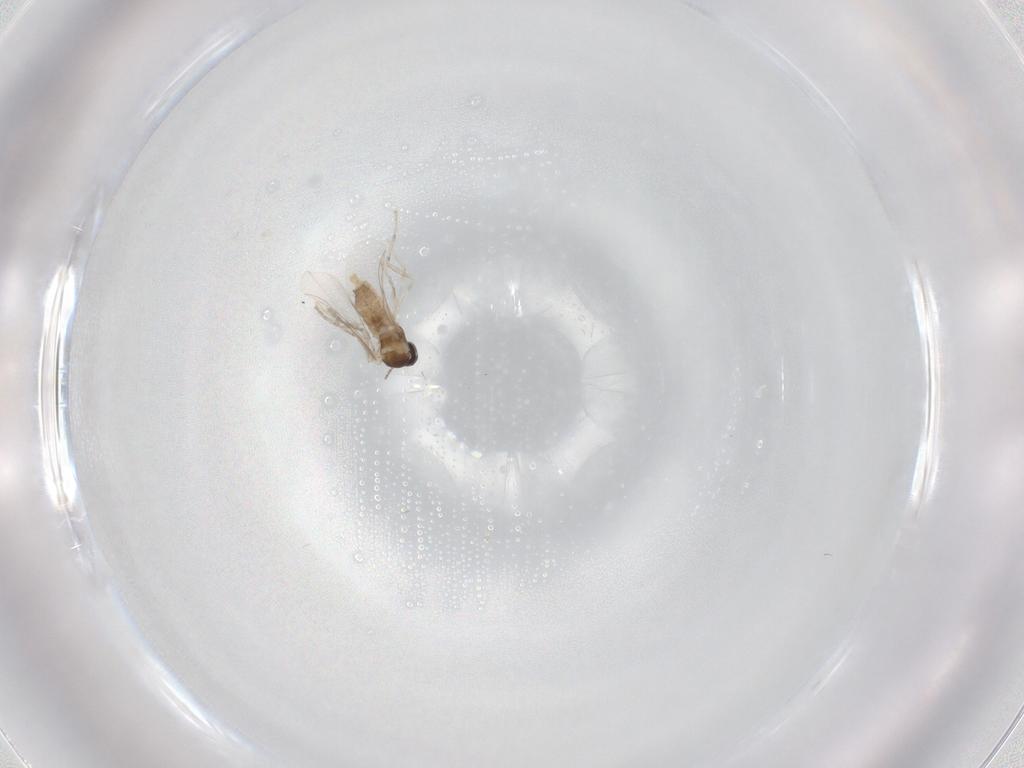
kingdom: Animalia
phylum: Arthropoda
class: Insecta
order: Diptera
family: Cecidomyiidae
